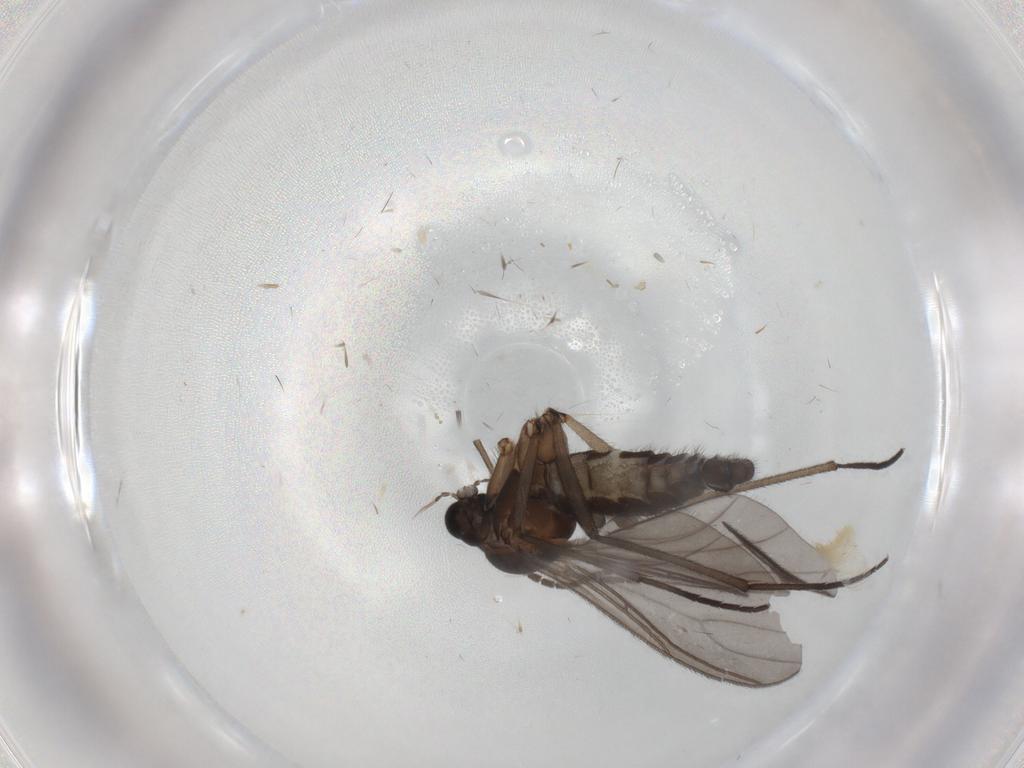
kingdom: Animalia
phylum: Arthropoda
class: Insecta
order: Diptera
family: Sciaridae
